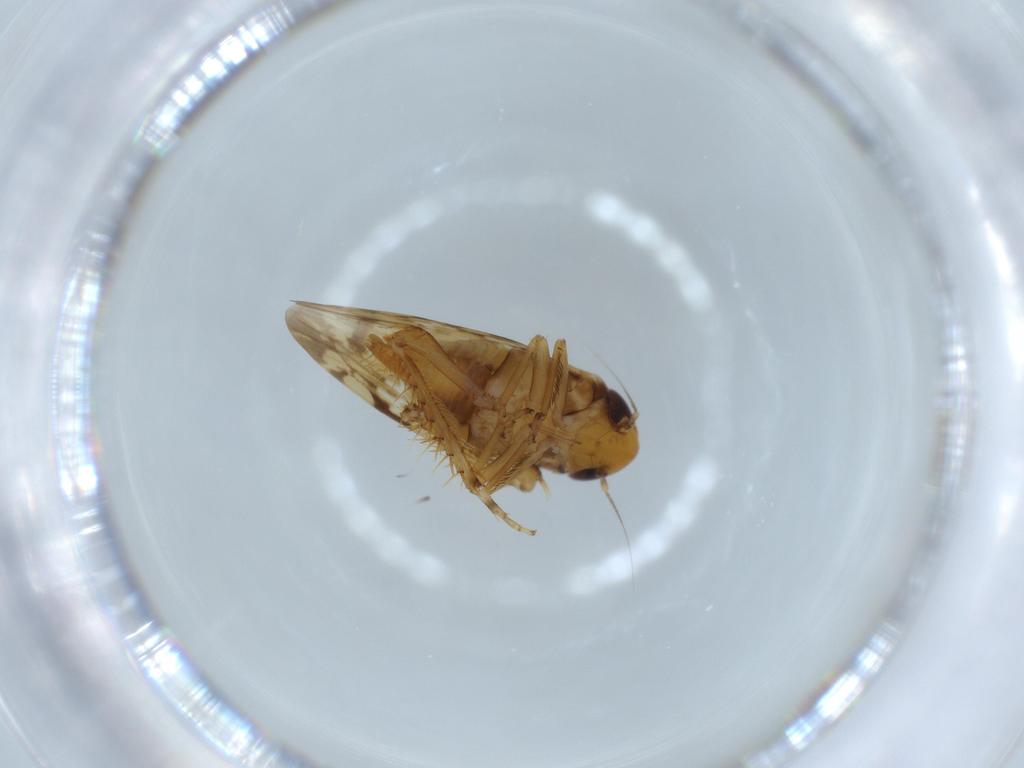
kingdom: Animalia
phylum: Arthropoda
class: Insecta
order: Hemiptera
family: Cicadellidae
